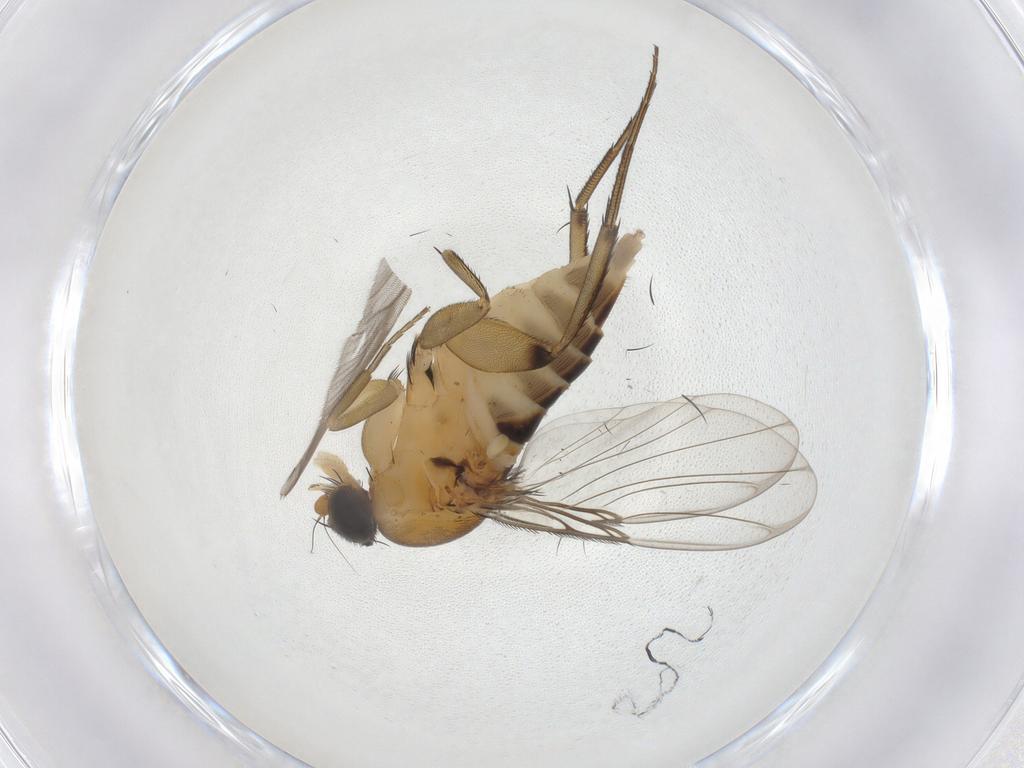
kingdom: Animalia
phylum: Arthropoda
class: Insecta
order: Diptera
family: Phoridae
